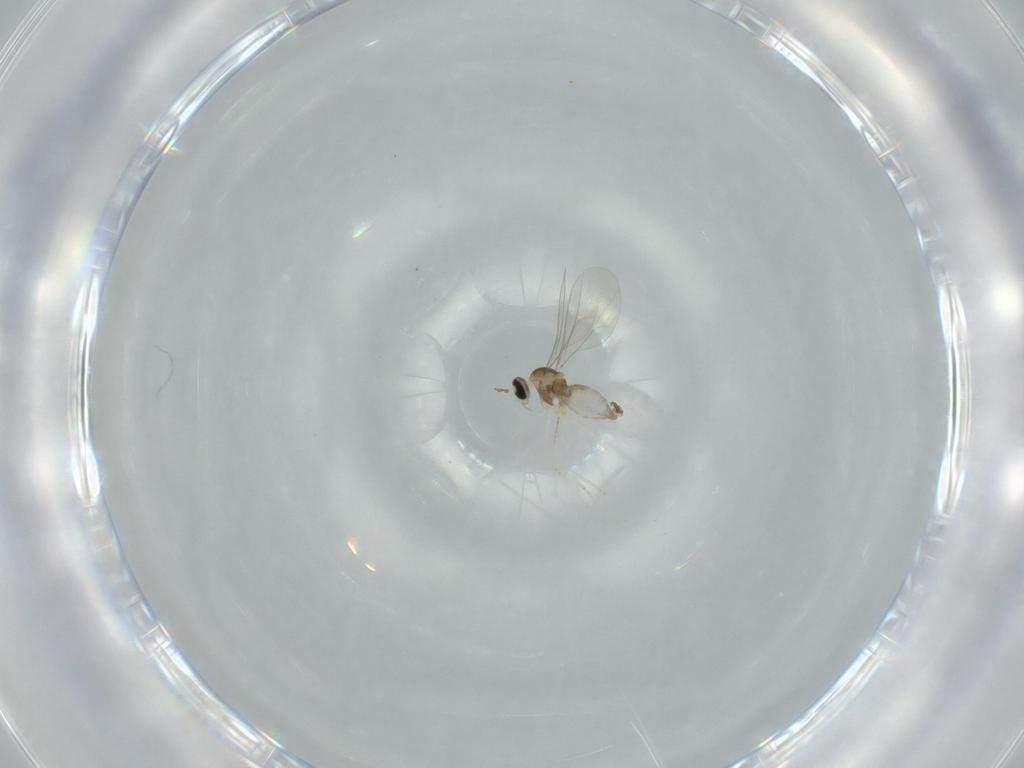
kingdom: Animalia
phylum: Arthropoda
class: Insecta
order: Diptera
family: Cecidomyiidae
